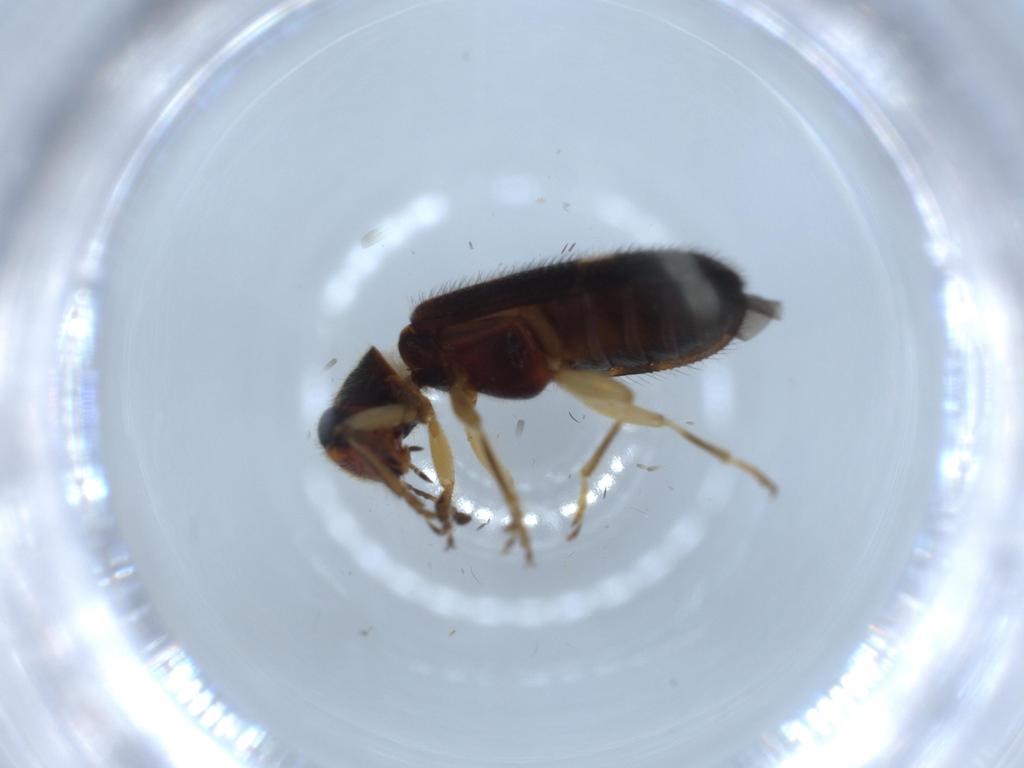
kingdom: Animalia
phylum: Arthropoda
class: Insecta
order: Coleoptera
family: Cleridae
